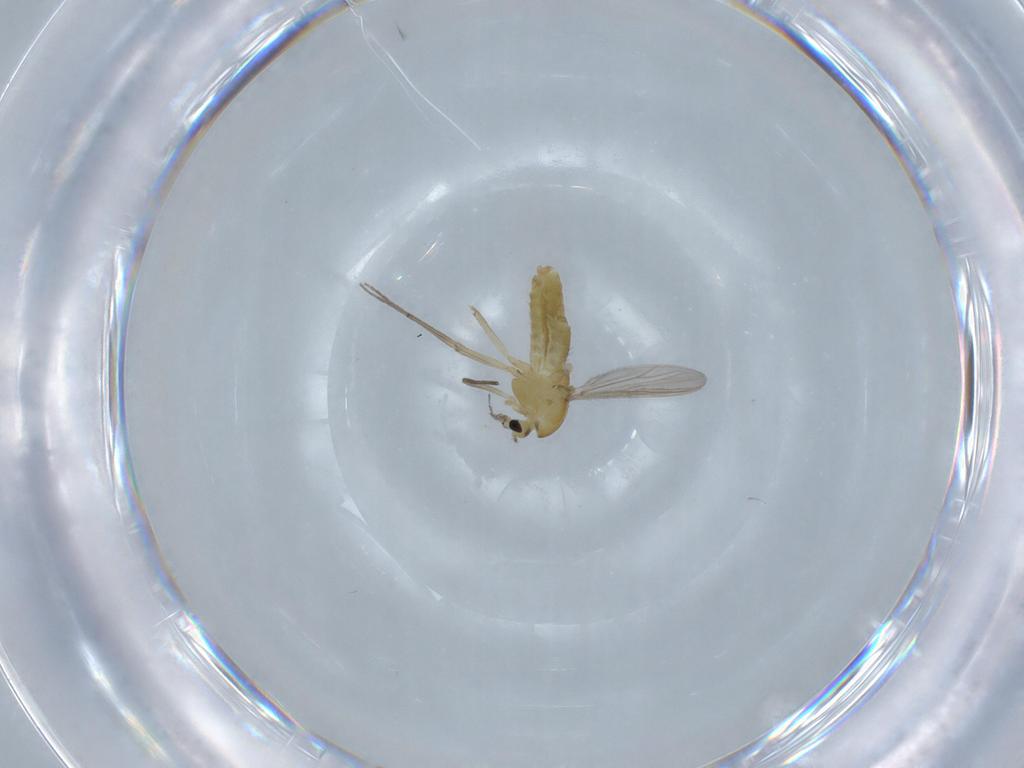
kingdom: Animalia
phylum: Arthropoda
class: Insecta
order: Diptera
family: Chironomidae
